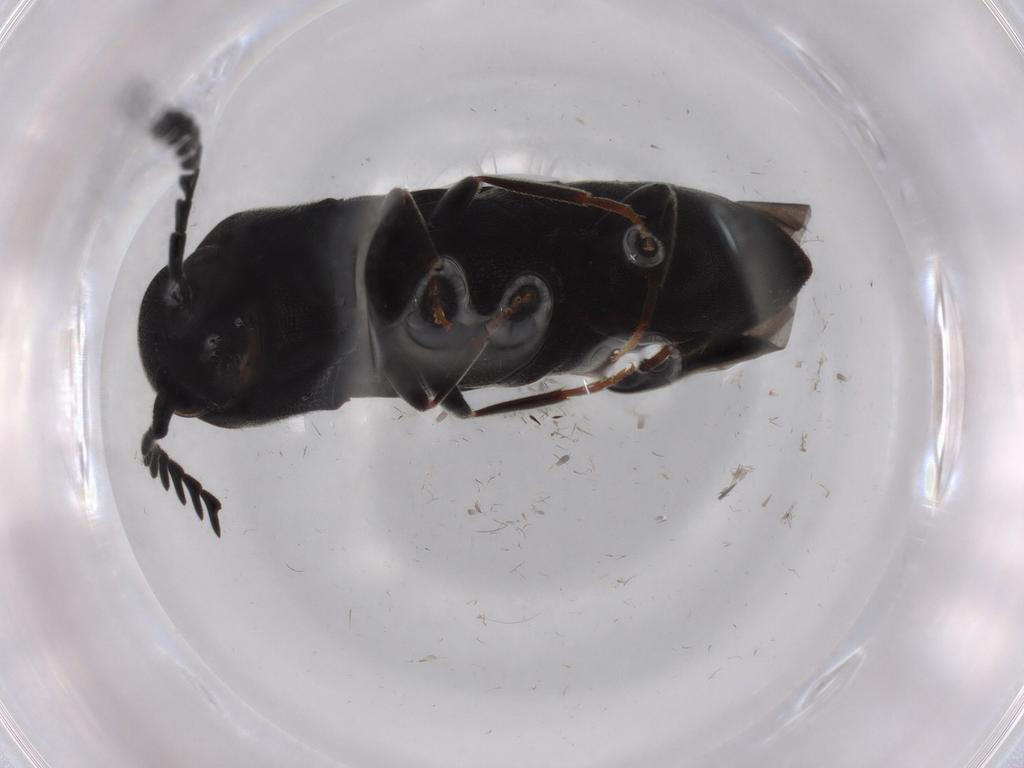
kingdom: Animalia
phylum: Arthropoda
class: Insecta
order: Coleoptera
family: Eucnemidae
